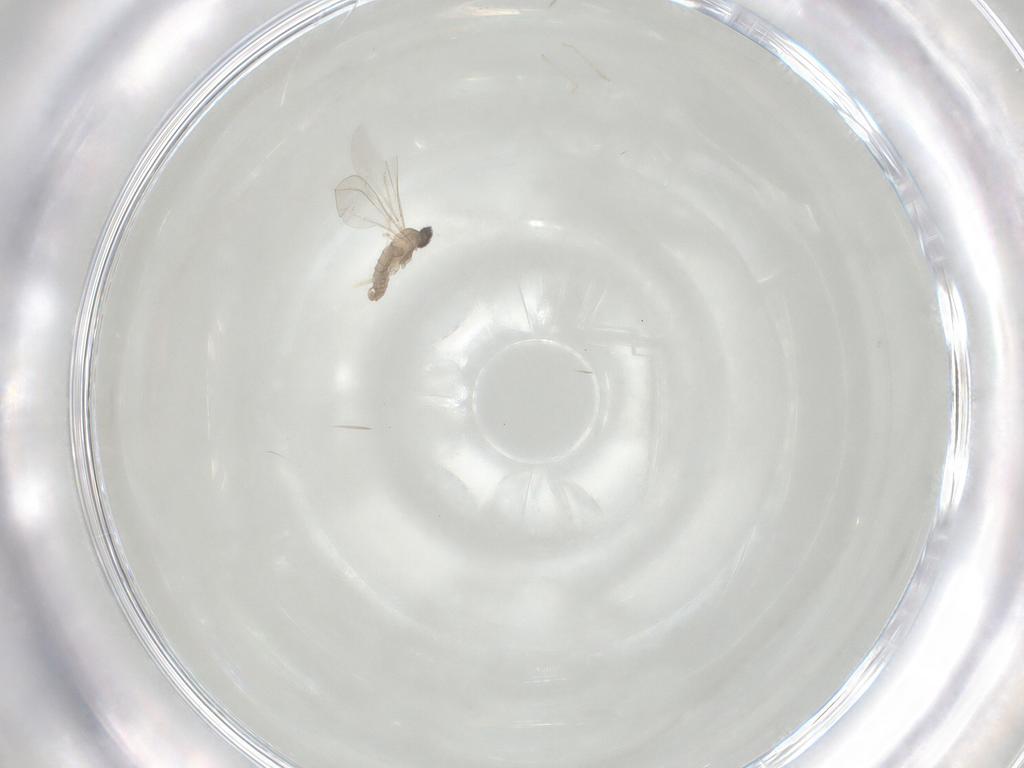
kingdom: Animalia
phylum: Arthropoda
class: Insecta
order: Diptera
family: Cecidomyiidae
